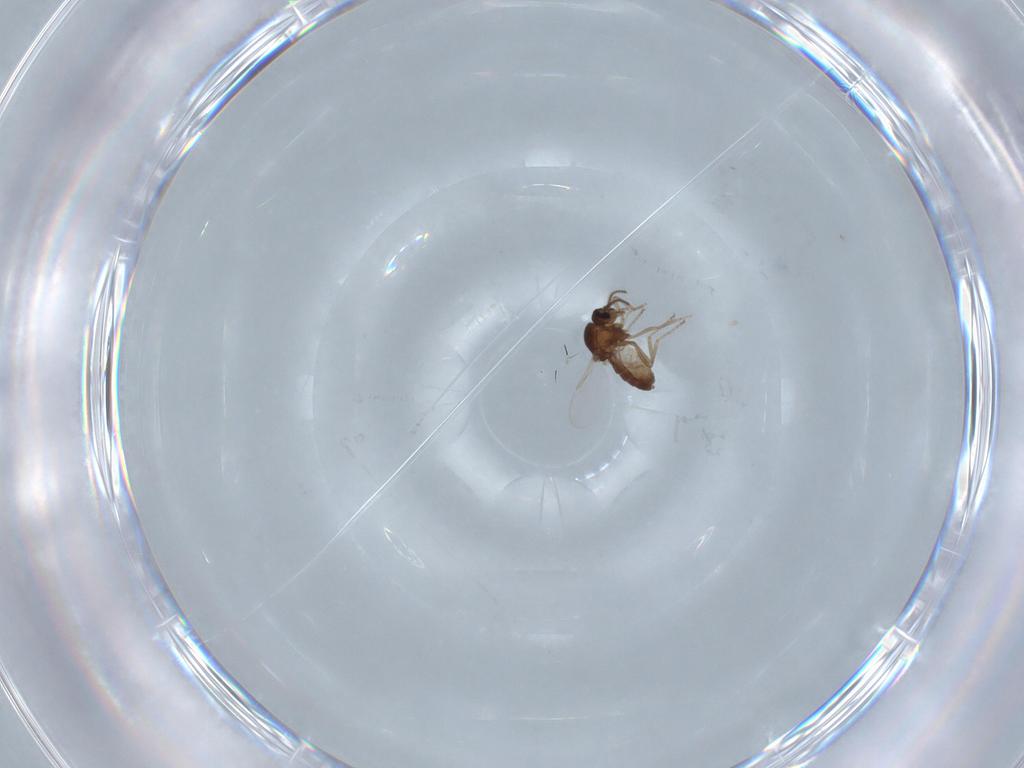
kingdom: Animalia
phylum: Arthropoda
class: Insecta
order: Diptera
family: Ceratopogonidae
